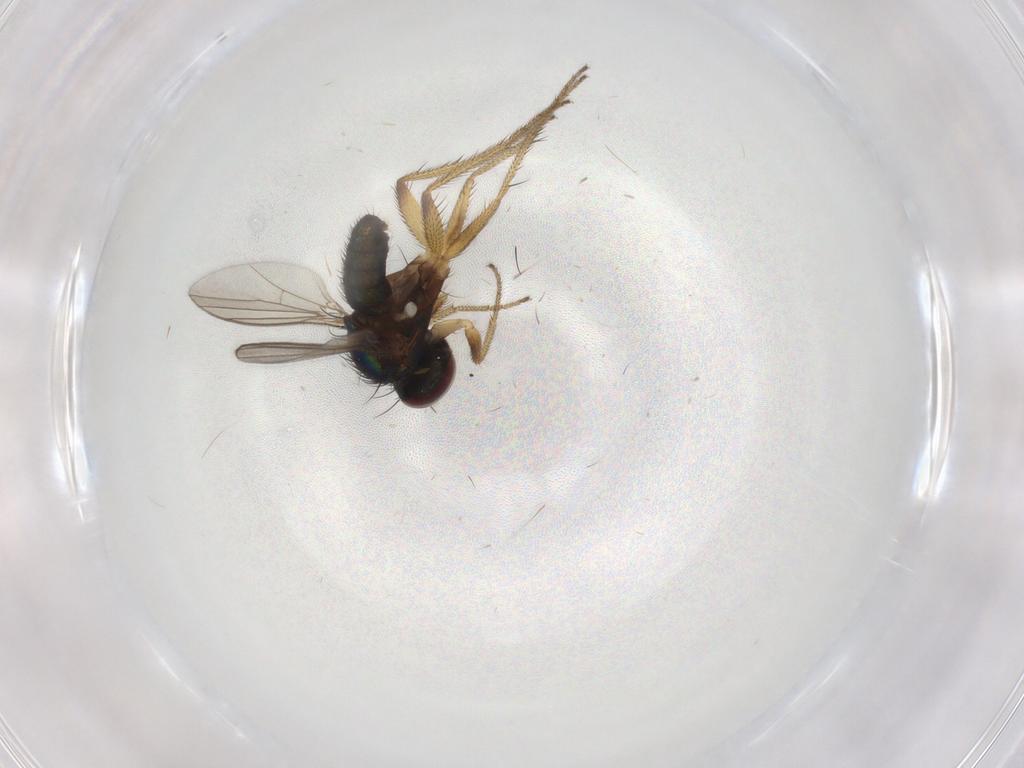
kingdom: Animalia
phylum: Arthropoda
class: Insecta
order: Diptera
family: Dolichopodidae
